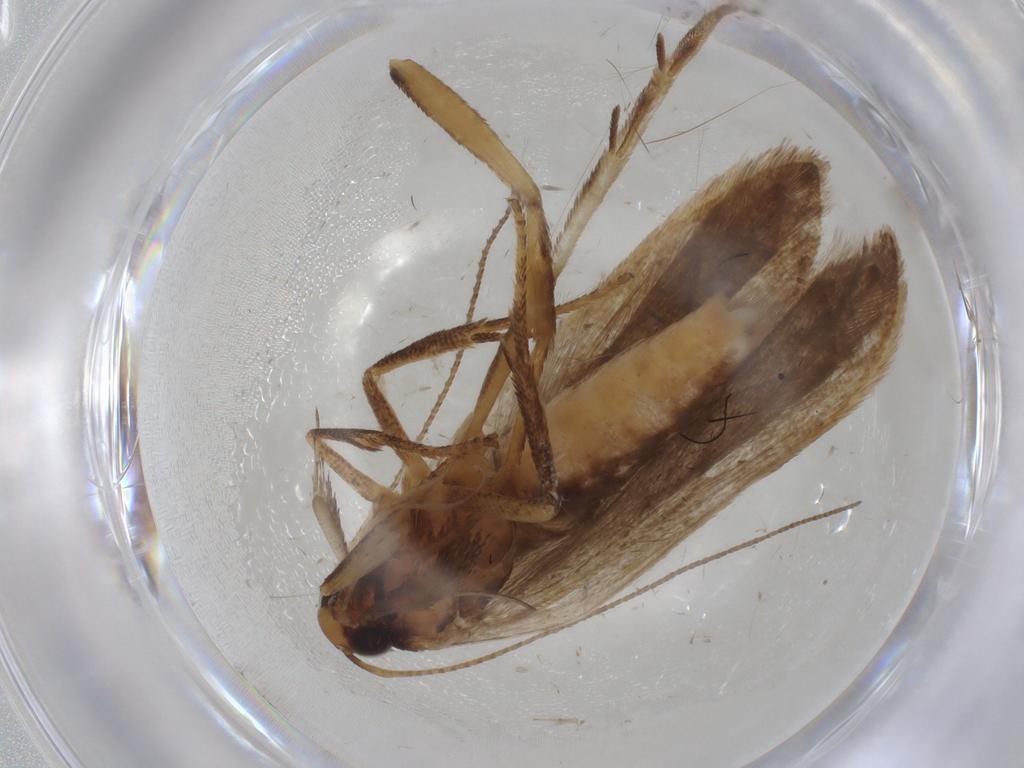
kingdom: Animalia
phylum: Arthropoda
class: Insecta
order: Lepidoptera
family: Gelechiidae
